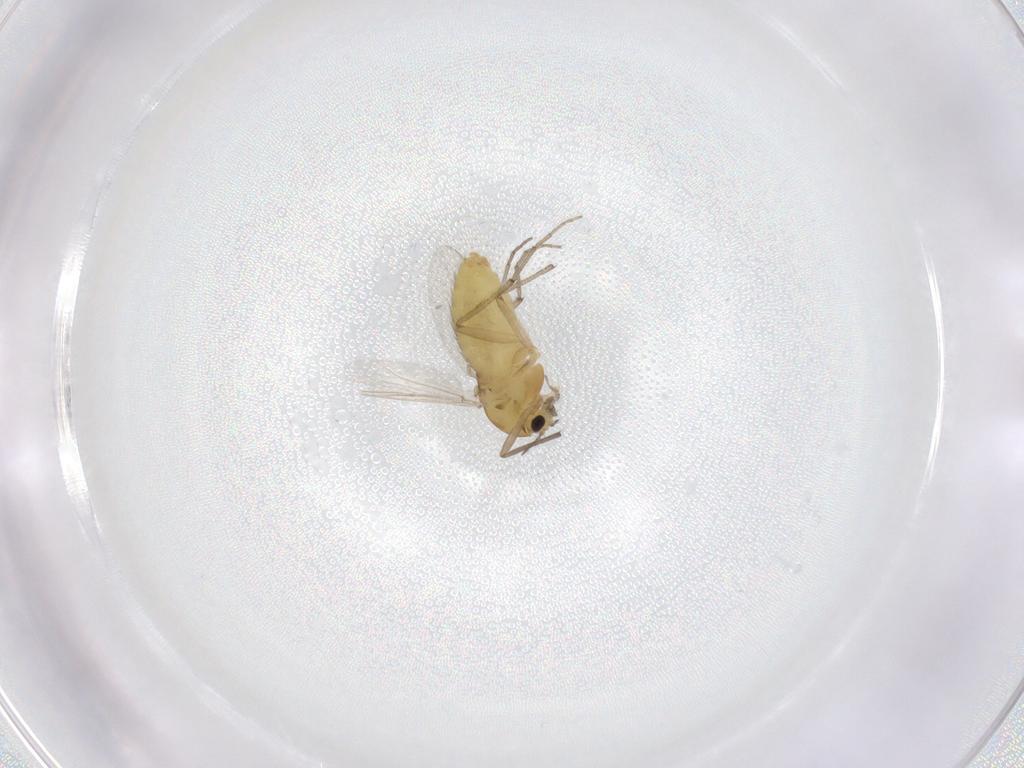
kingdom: Animalia
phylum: Arthropoda
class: Insecta
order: Diptera
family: Chironomidae
